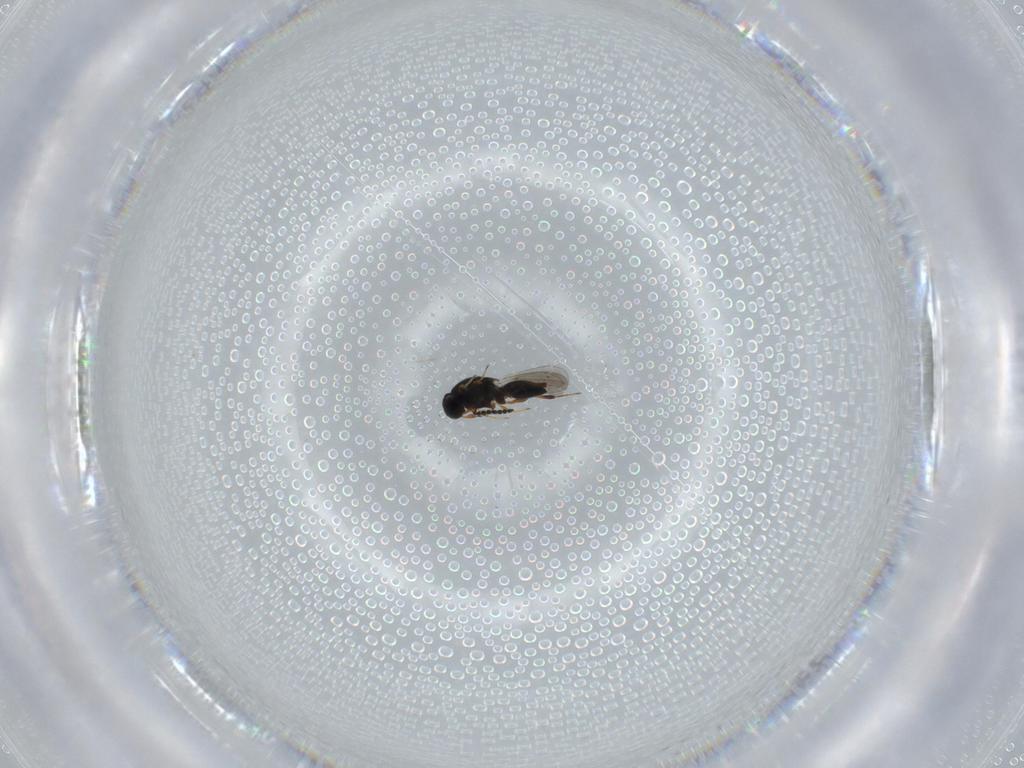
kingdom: Animalia
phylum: Arthropoda
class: Insecta
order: Hymenoptera
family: Platygastridae
